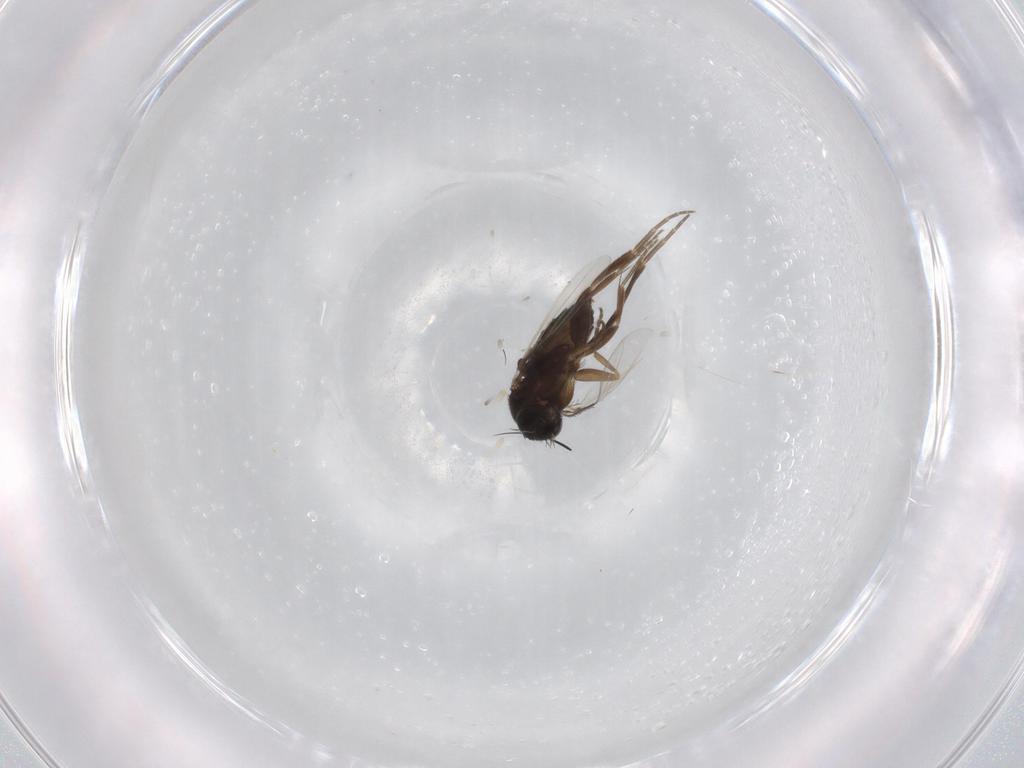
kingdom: Animalia
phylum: Arthropoda
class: Insecta
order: Diptera
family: Phoridae
